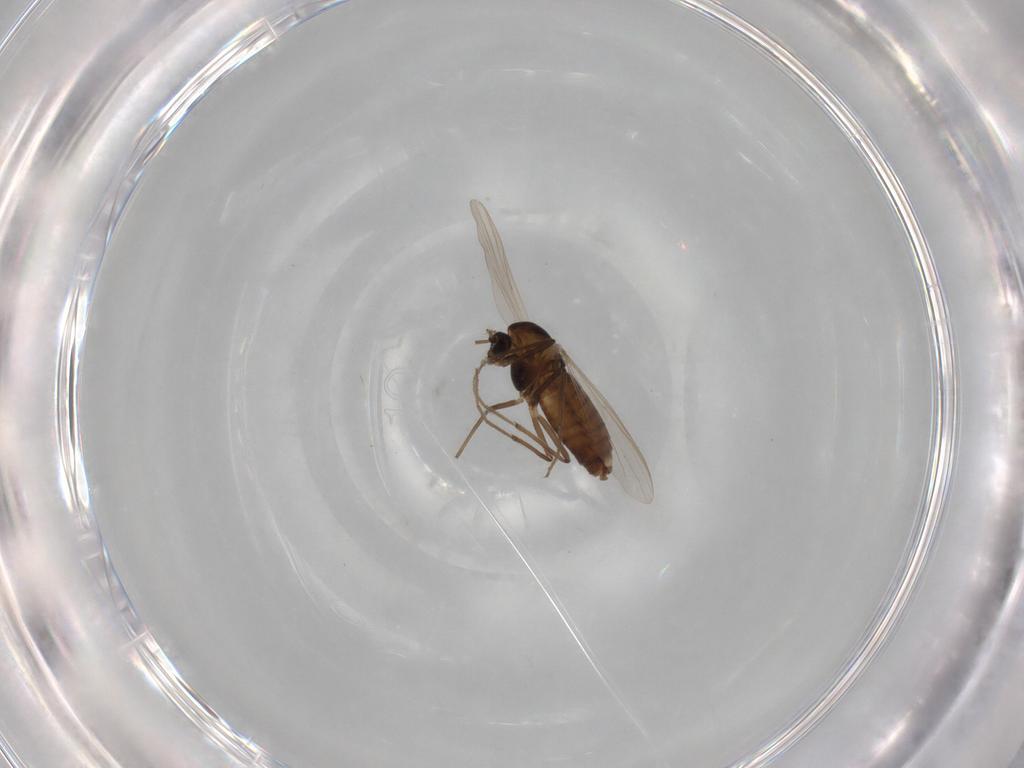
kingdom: Animalia
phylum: Arthropoda
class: Insecta
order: Diptera
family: Chironomidae
